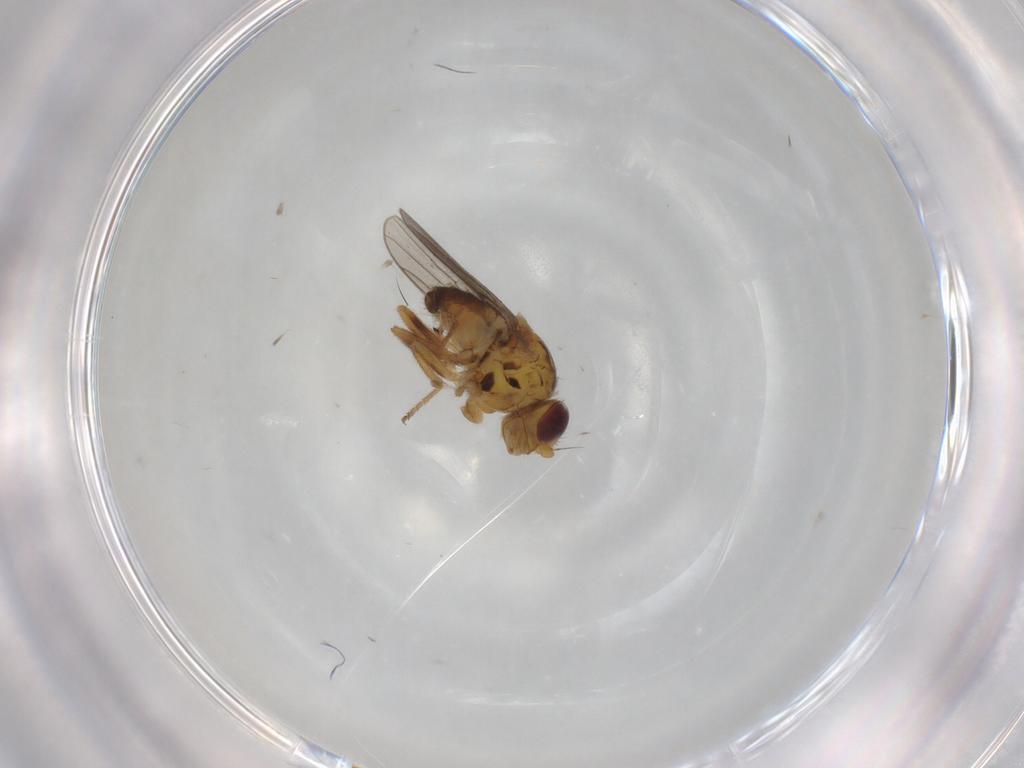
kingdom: Animalia
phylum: Arthropoda
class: Insecta
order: Diptera
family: Chloropidae
